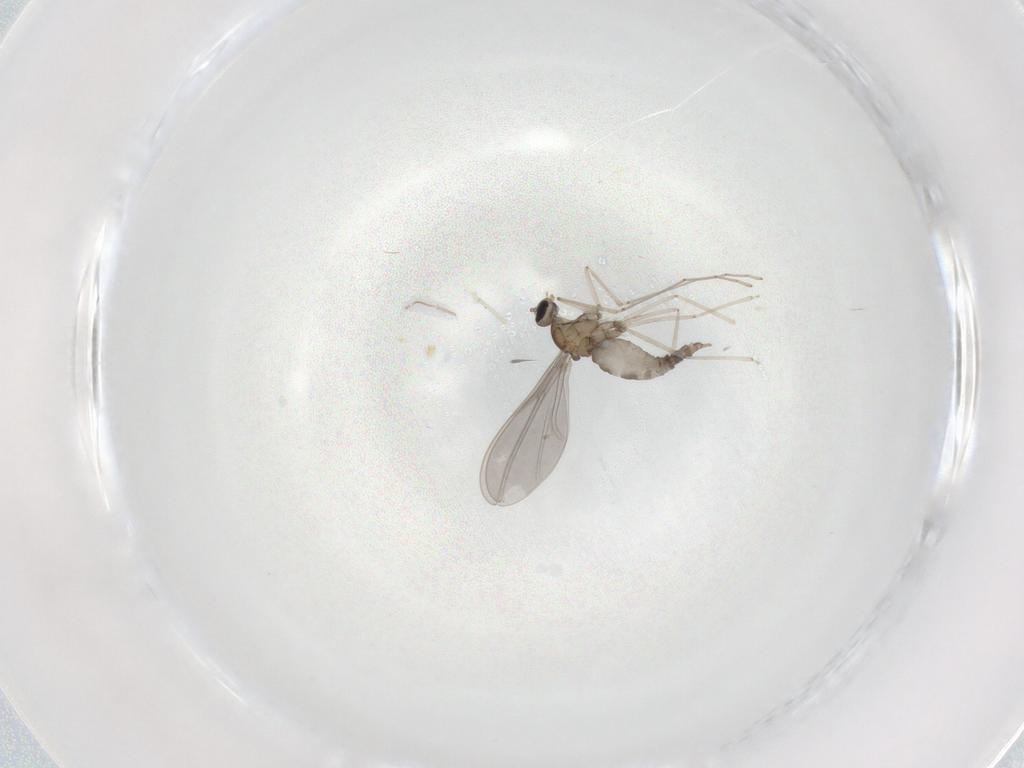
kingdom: Animalia
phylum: Arthropoda
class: Insecta
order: Diptera
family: Cecidomyiidae
